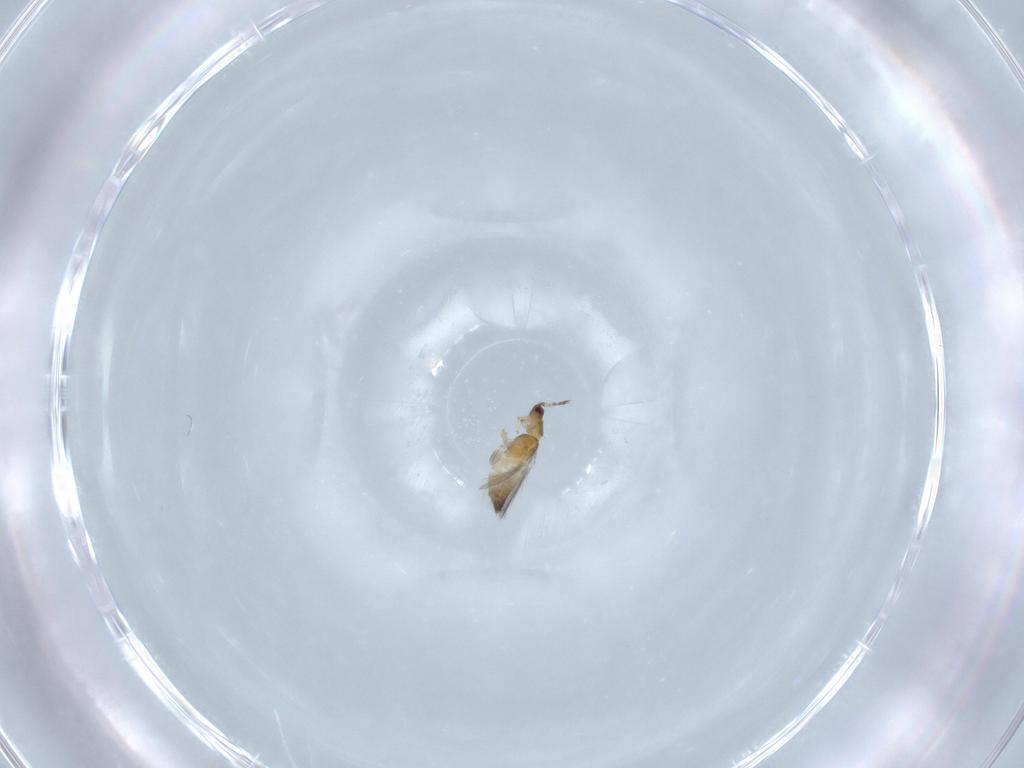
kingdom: Animalia
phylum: Arthropoda
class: Insecta
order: Thysanoptera
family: Thripidae
